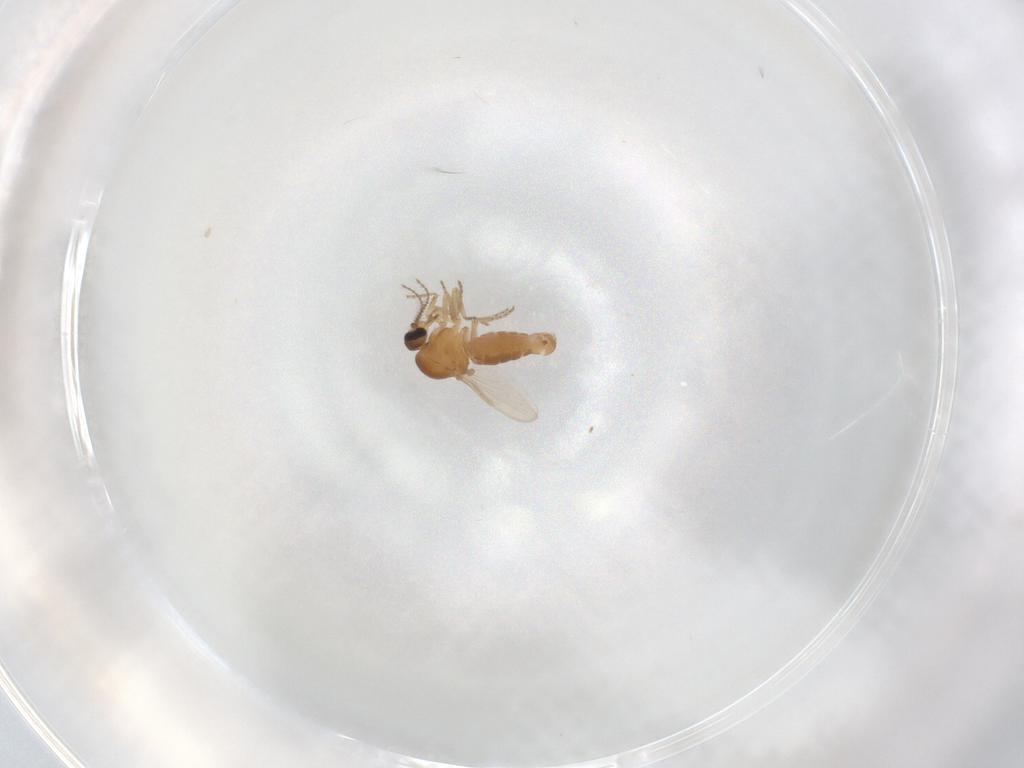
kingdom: Animalia
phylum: Arthropoda
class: Insecta
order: Diptera
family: Ceratopogonidae
